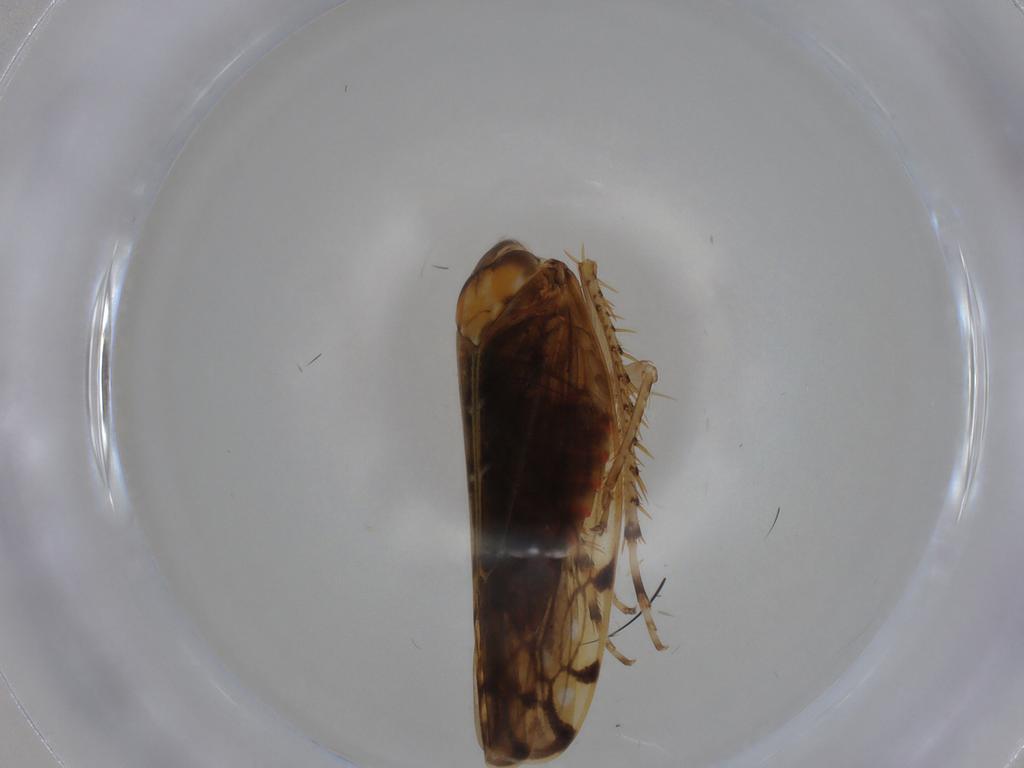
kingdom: Animalia
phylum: Arthropoda
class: Insecta
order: Hemiptera
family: Cicadellidae
